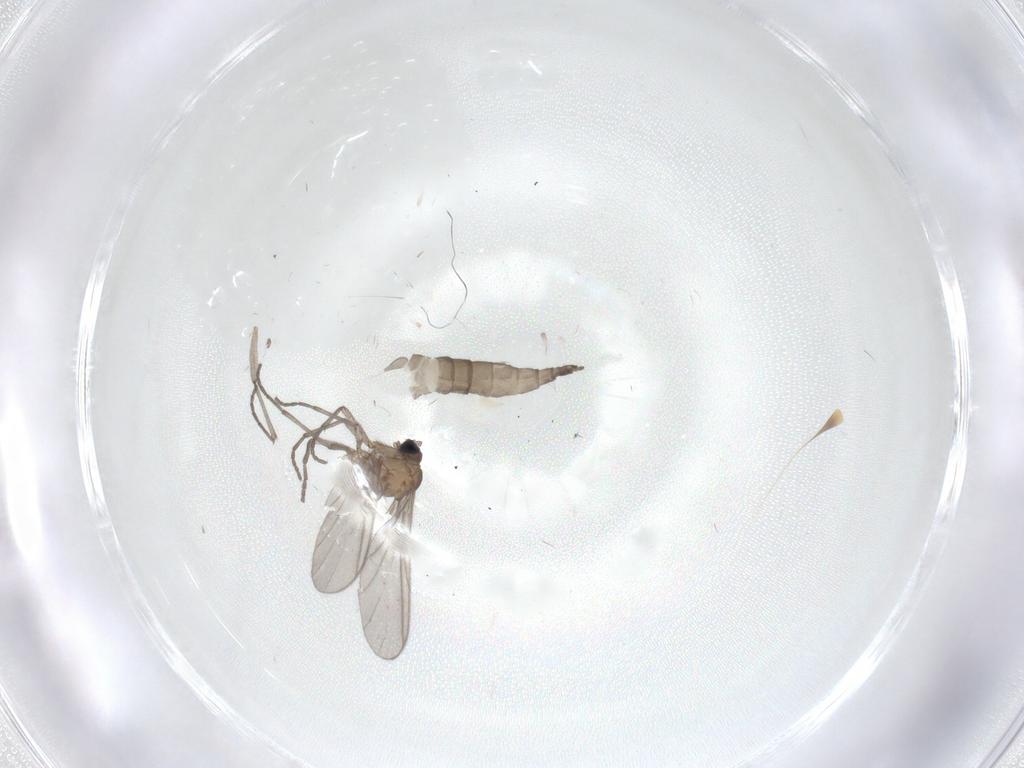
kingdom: Animalia
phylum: Arthropoda
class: Insecta
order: Diptera
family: Sciaridae
